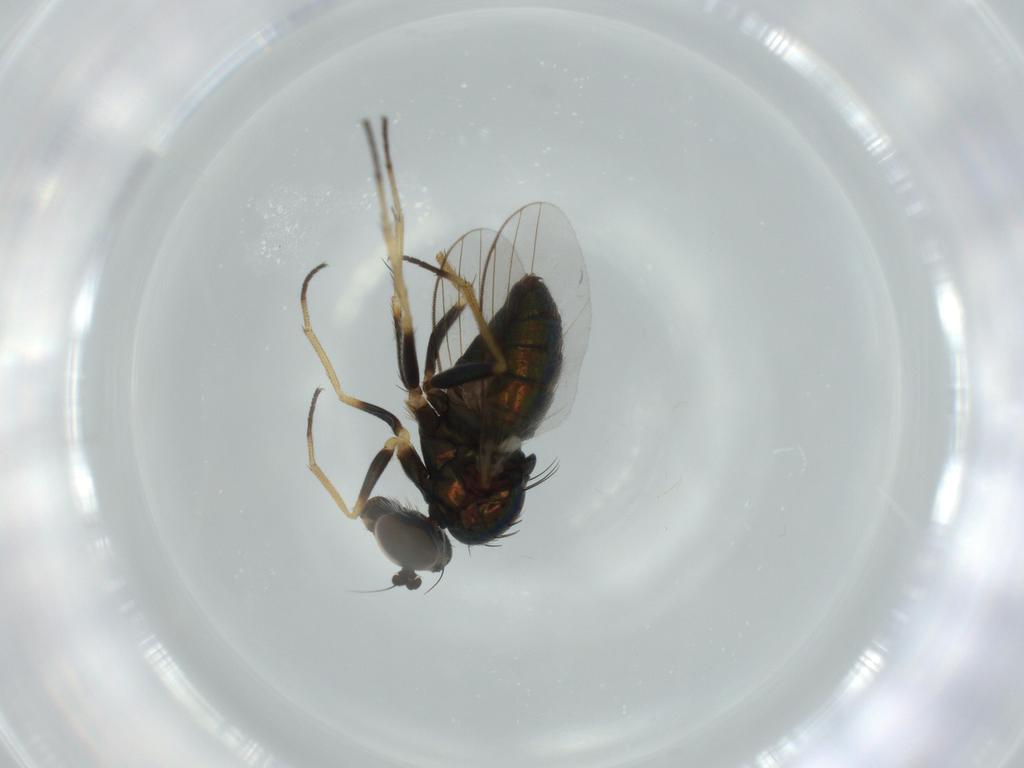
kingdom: Animalia
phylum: Arthropoda
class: Insecta
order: Diptera
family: Dolichopodidae
